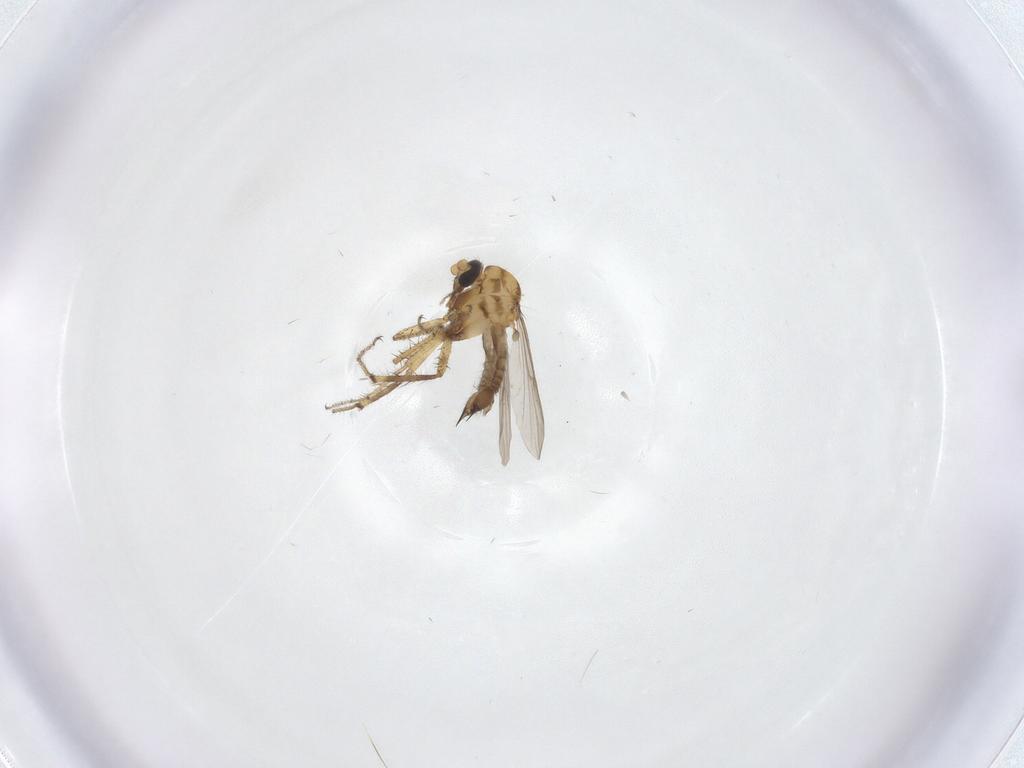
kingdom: Animalia
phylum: Arthropoda
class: Insecta
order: Diptera
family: Ceratopogonidae
